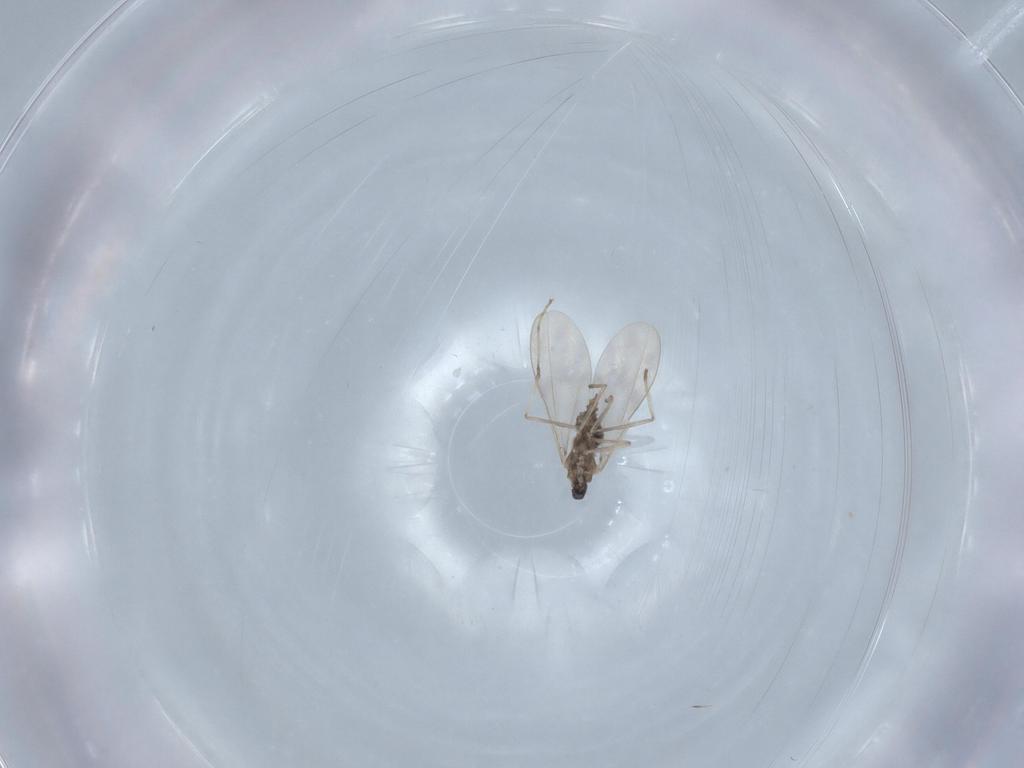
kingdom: Animalia
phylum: Arthropoda
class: Insecta
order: Diptera
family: Cecidomyiidae
